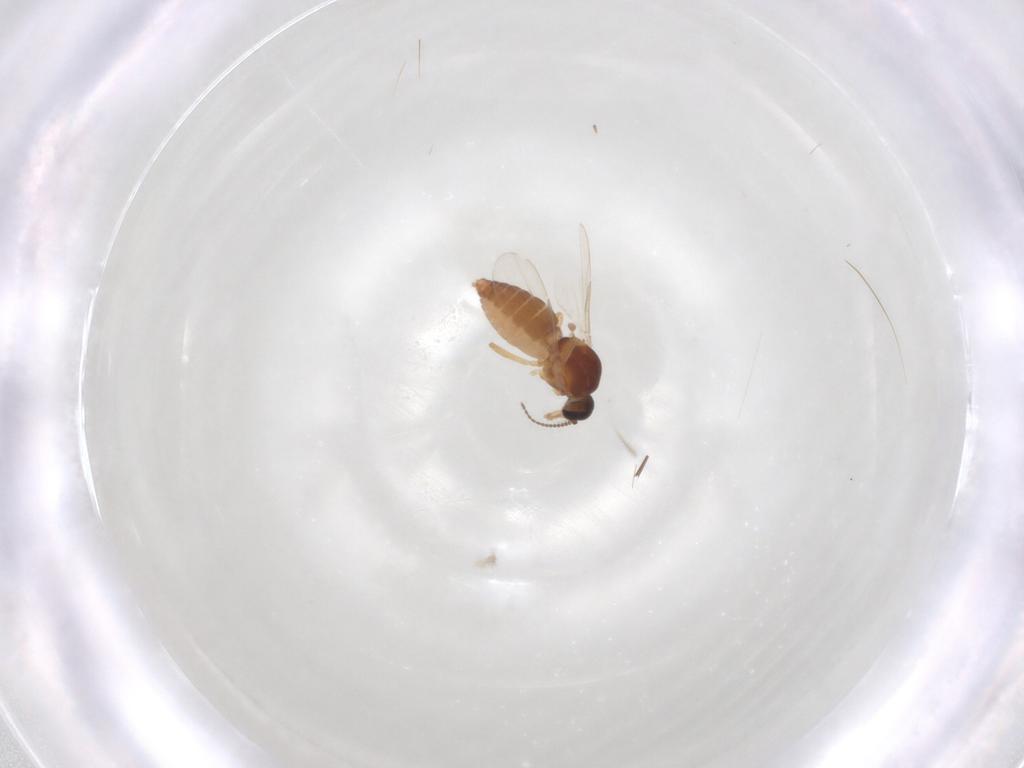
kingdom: Animalia
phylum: Arthropoda
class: Insecta
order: Diptera
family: Ceratopogonidae
